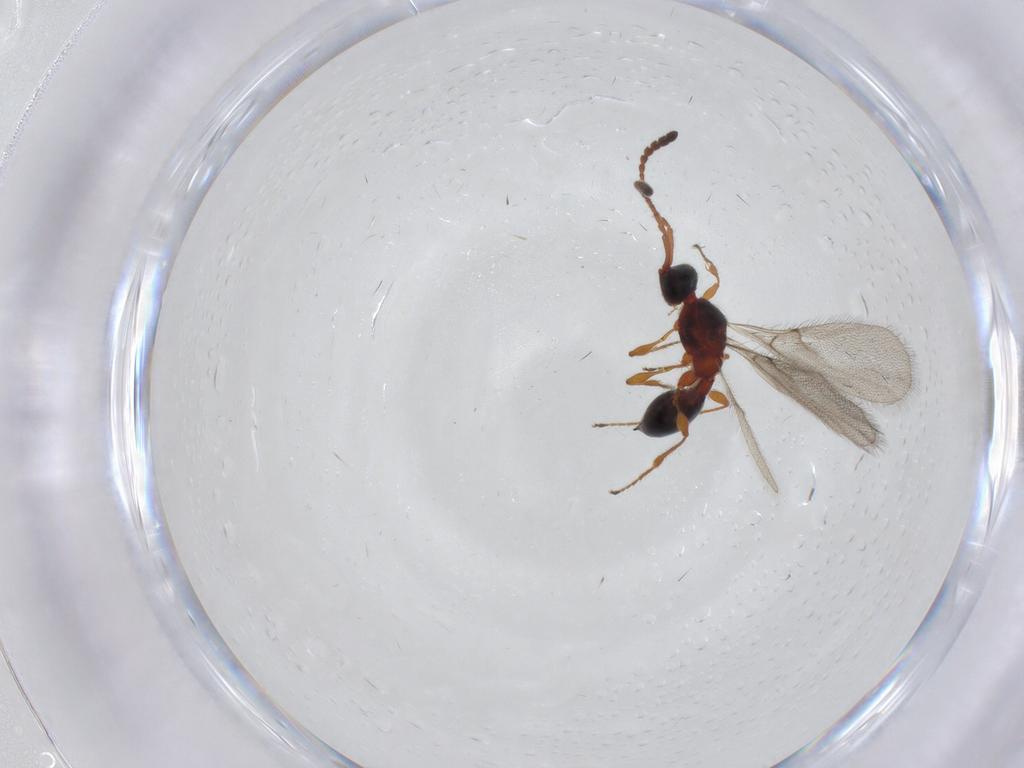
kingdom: Animalia
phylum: Arthropoda
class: Insecta
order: Hymenoptera
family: Diapriidae
